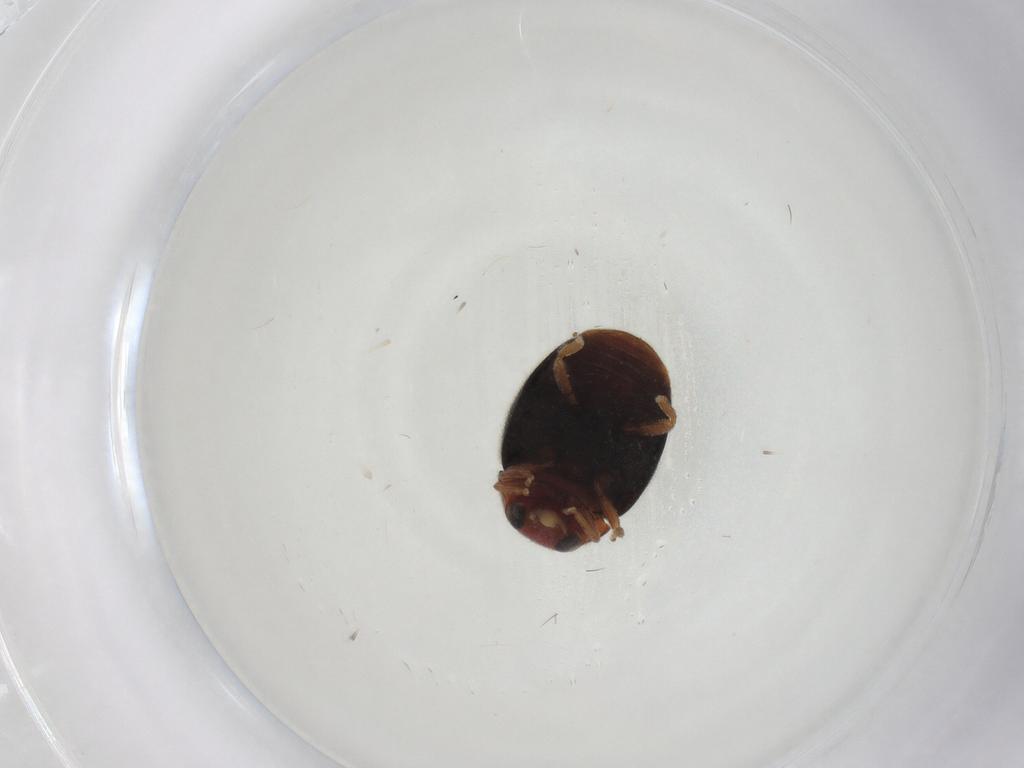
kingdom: Animalia
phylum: Arthropoda
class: Insecta
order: Coleoptera
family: Coccinellidae
